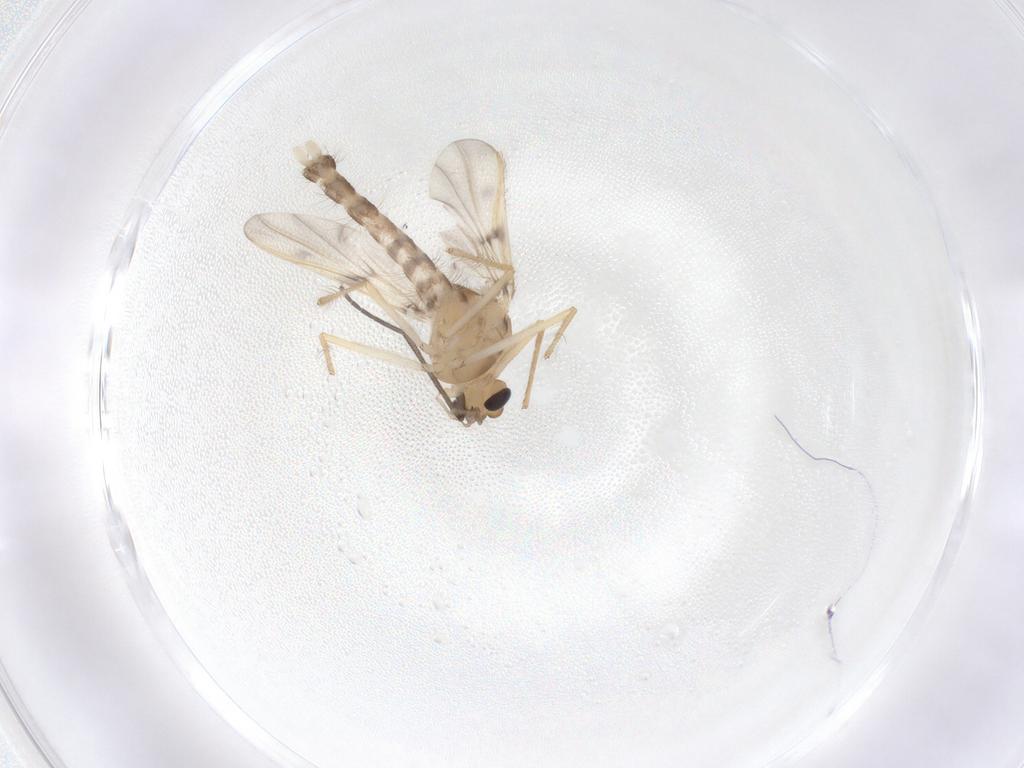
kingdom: Animalia
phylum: Arthropoda
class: Insecta
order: Diptera
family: Chironomidae
